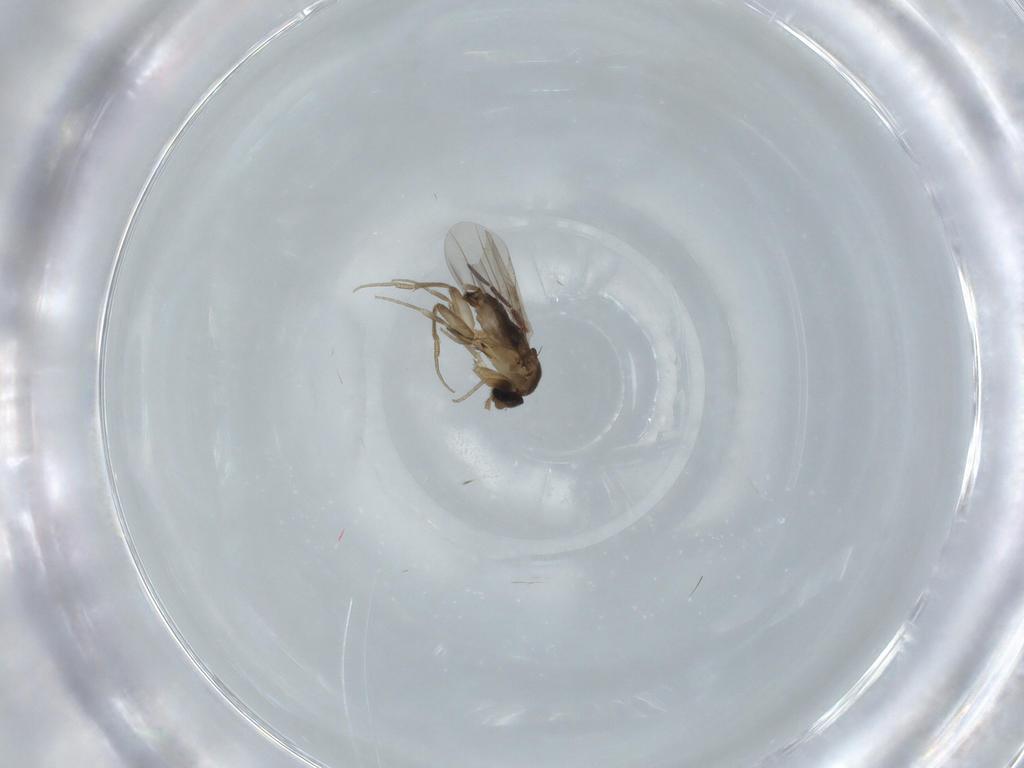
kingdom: Animalia
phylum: Arthropoda
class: Insecta
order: Diptera
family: Phoridae
